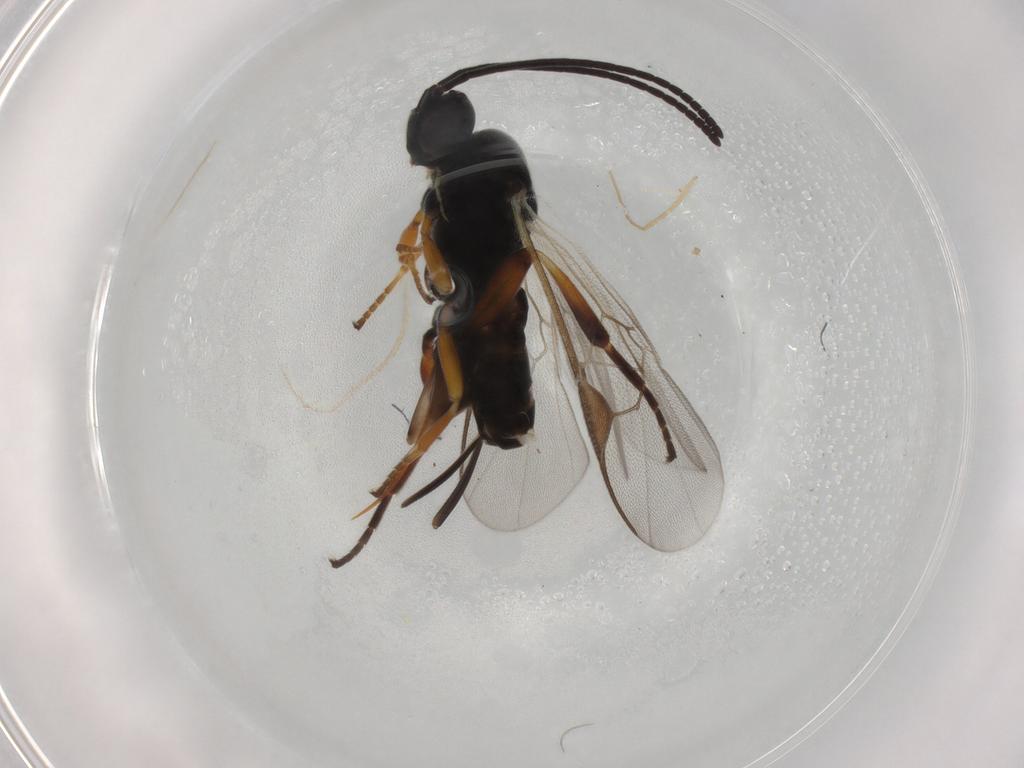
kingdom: Animalia
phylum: Arthropoda
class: Insecta
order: Hymenoptera
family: Braconidae
